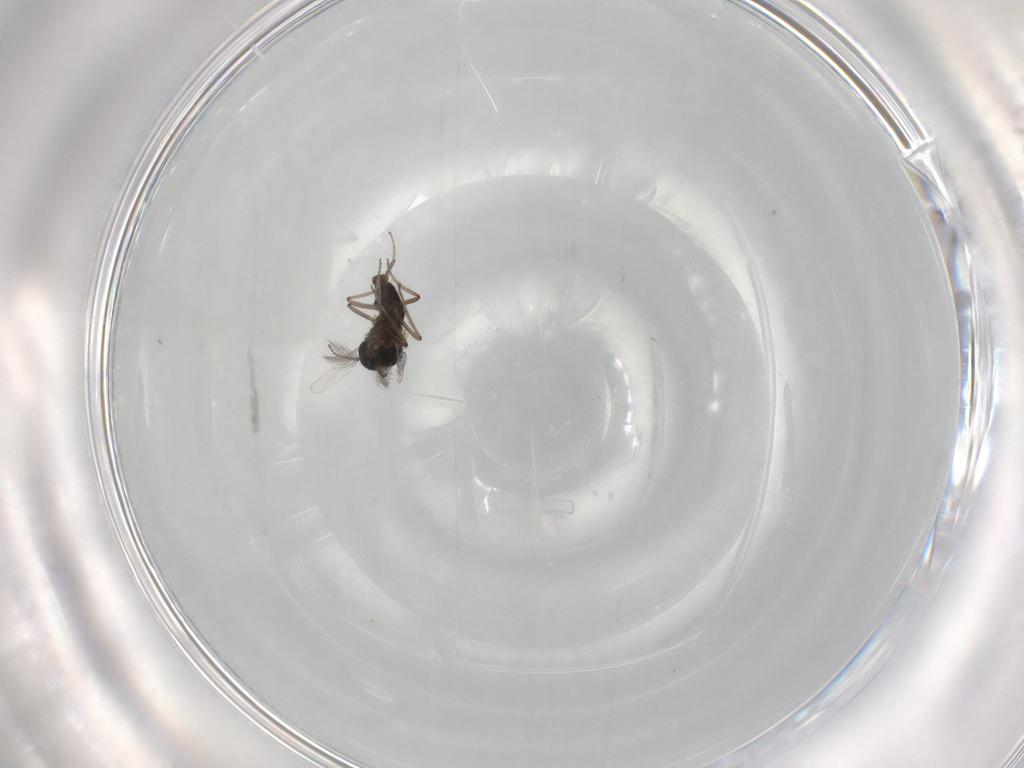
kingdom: Animalia
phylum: Arthropoda
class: Insecta
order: Diptera
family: Ceratopogonidae
